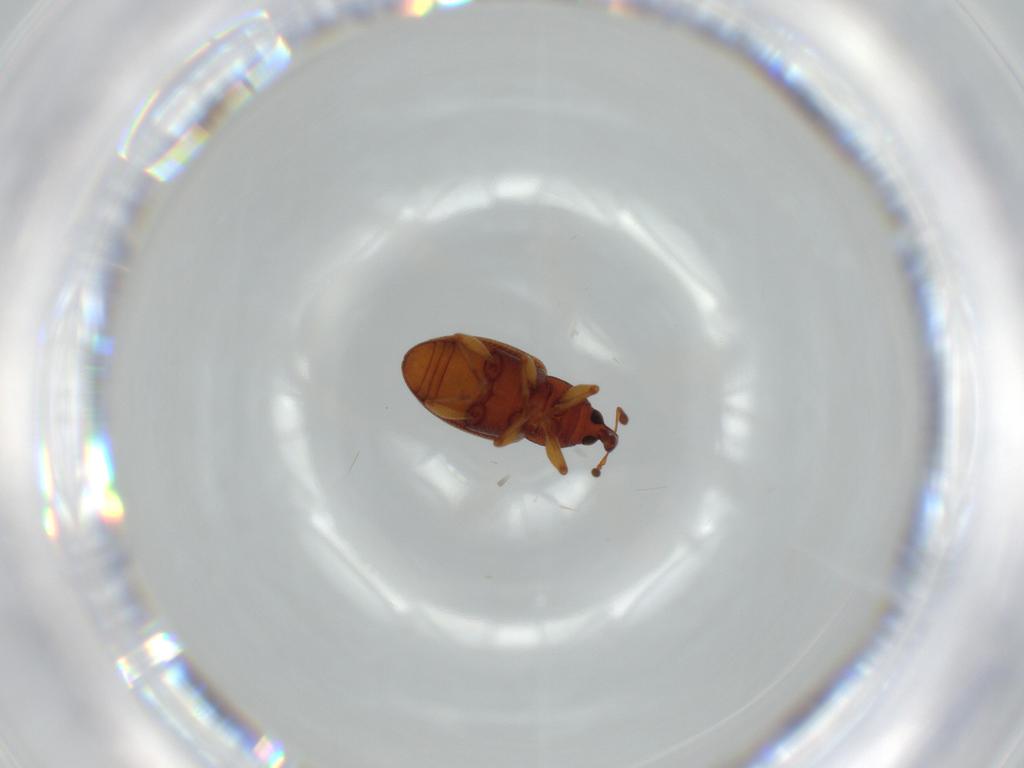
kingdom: Animalia
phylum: Arthropoda
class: Insecta
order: Coleoptera
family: Curculionidae
